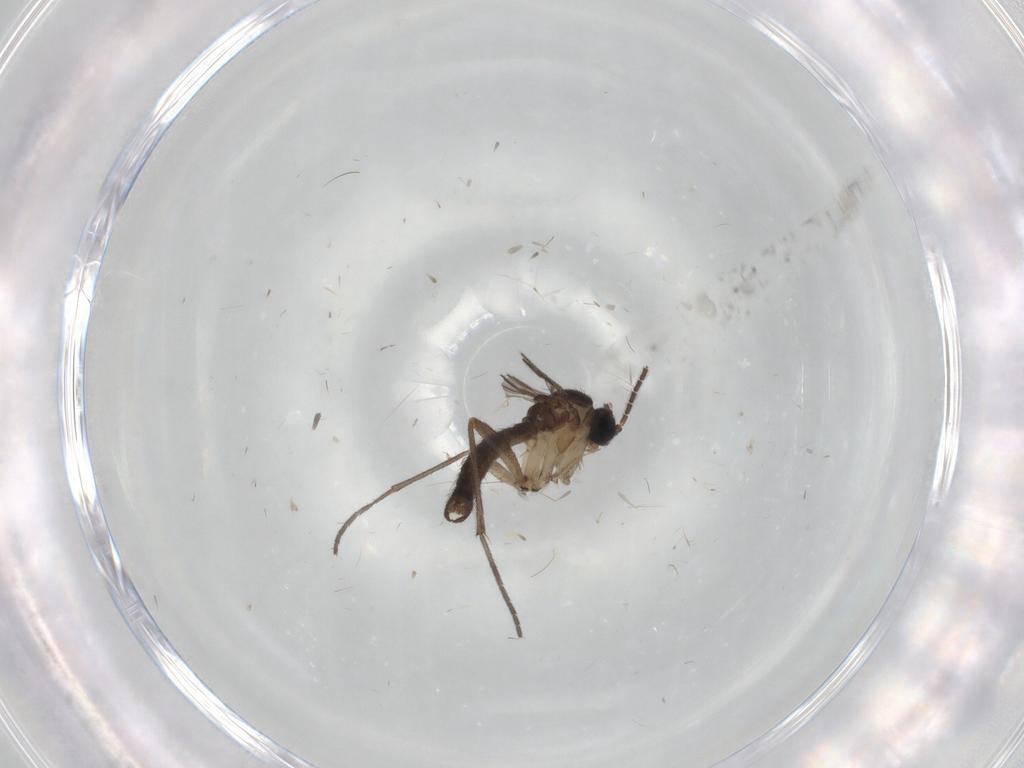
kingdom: Animalia
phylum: Arthropoda
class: Insecta
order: Diptera
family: Sciaridae
